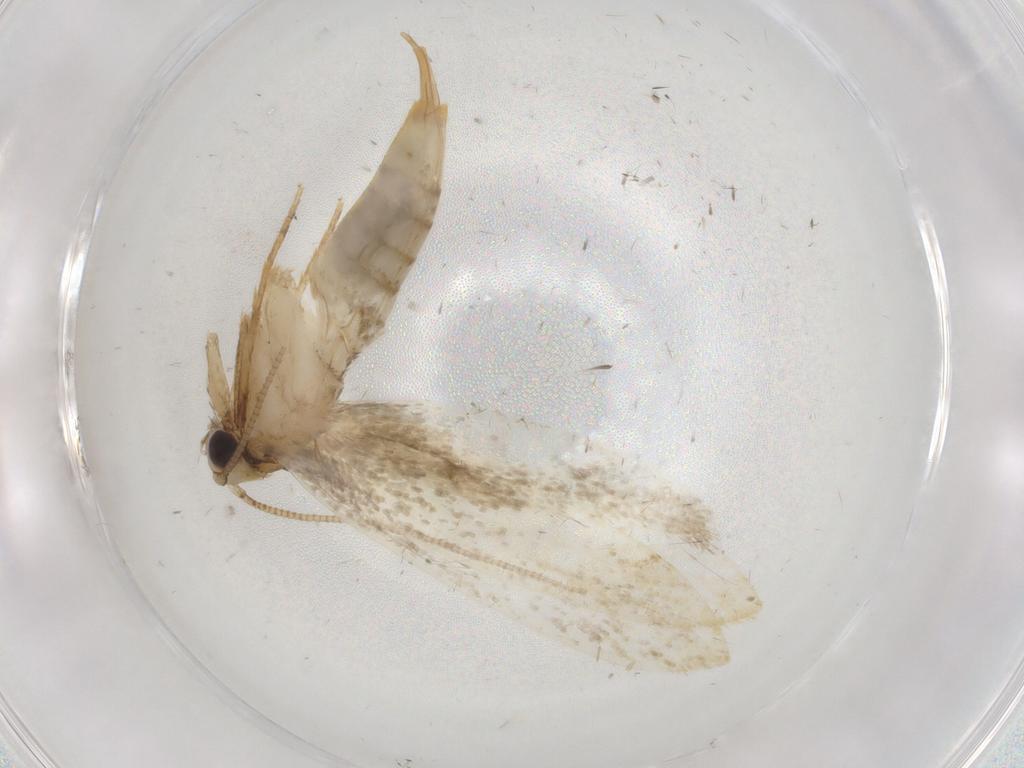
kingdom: Animalia
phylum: Arthropoda
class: Insecta
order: Lepidoptera
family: Tineidae
